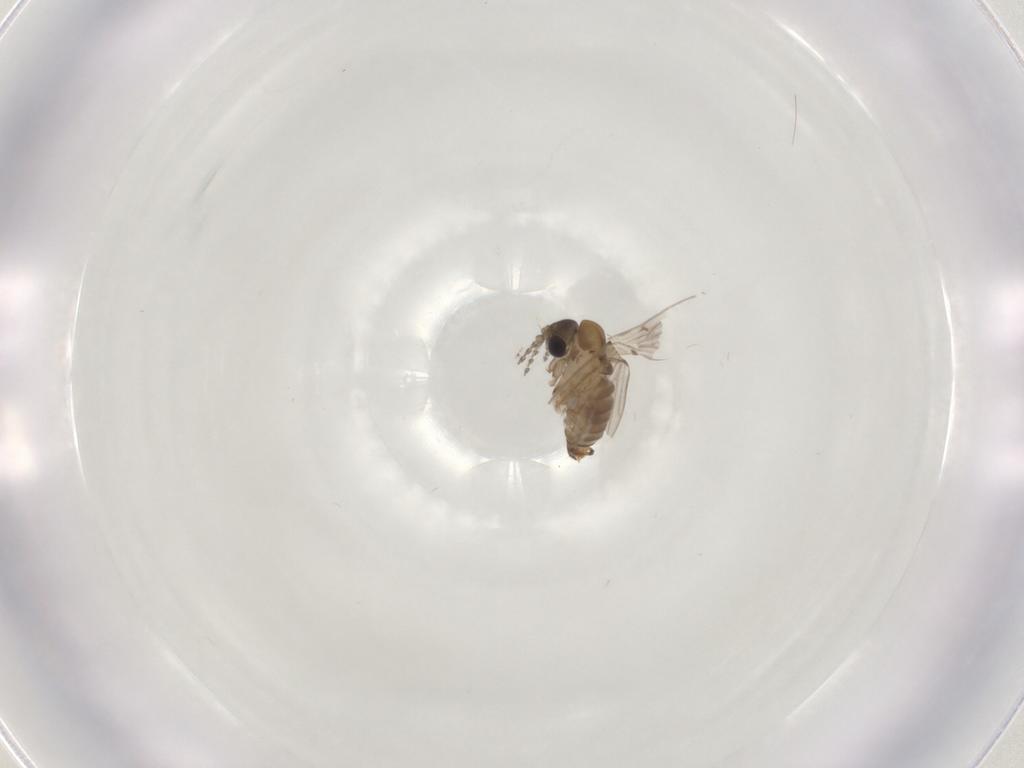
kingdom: Animalia
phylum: Arthropoda
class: Insecta
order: Diptera
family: Psychodidae
